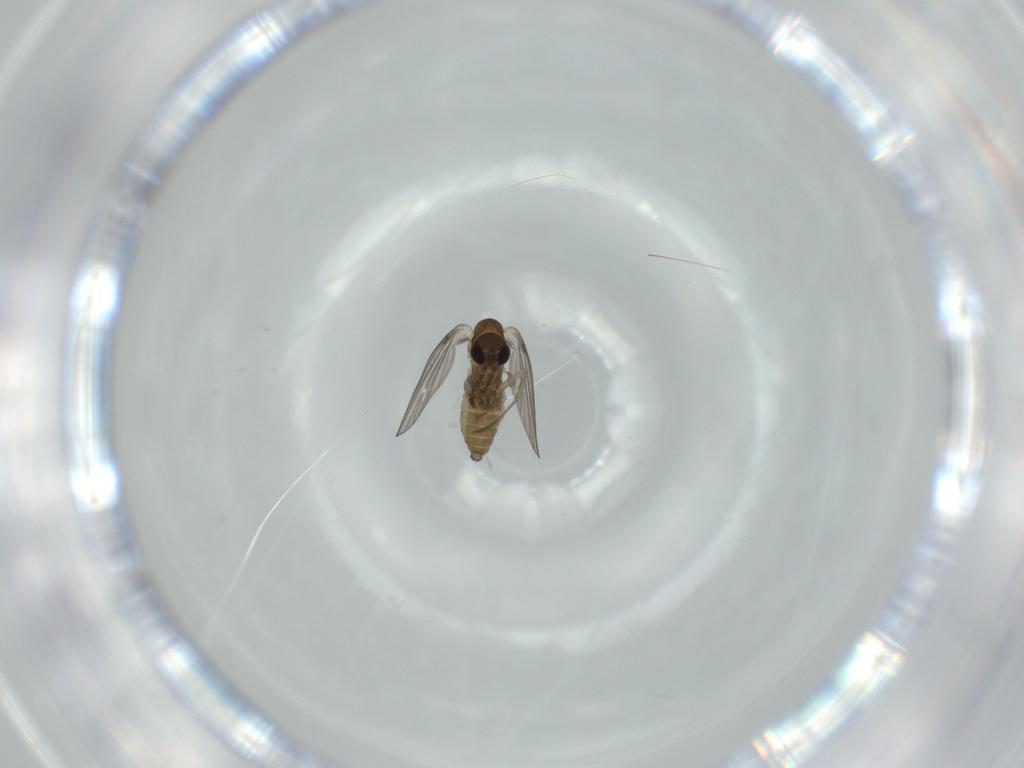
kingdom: Animalia
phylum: Arthropoda
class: Insecta
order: Diptera
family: Psychodidae
